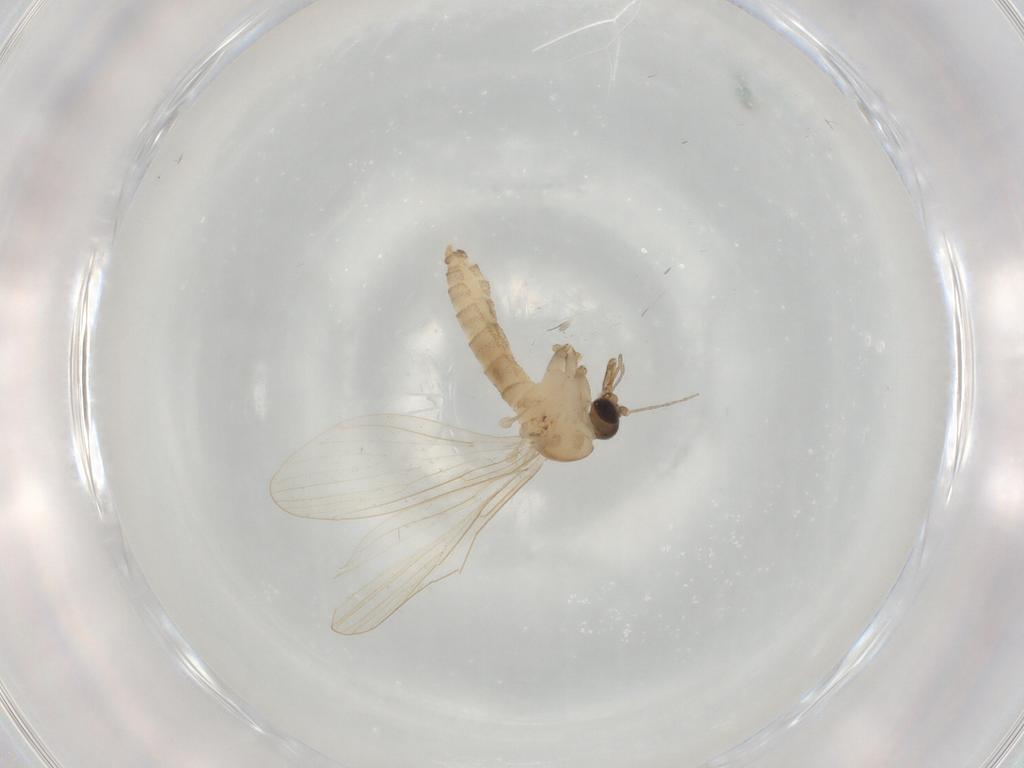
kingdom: Animalia
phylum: Arthropoda
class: Insecta
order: Diptera
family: Psychodidae
